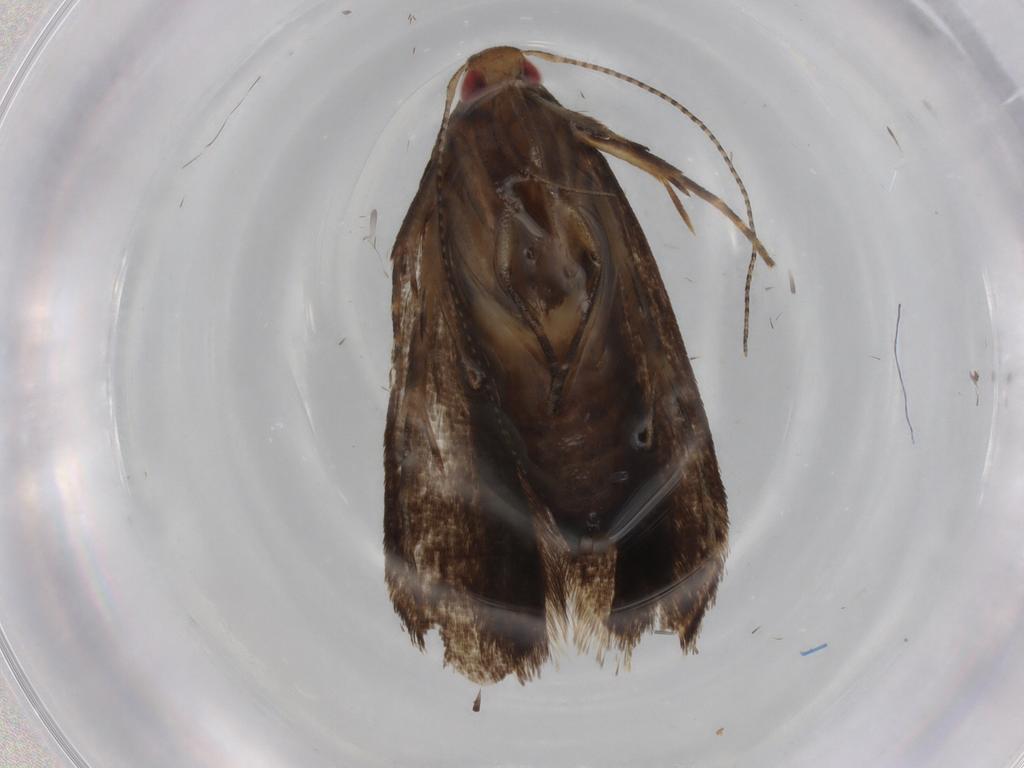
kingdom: Animalia
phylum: Arthropoda
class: Insecta
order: Lepidoptera
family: Gelechiidae
